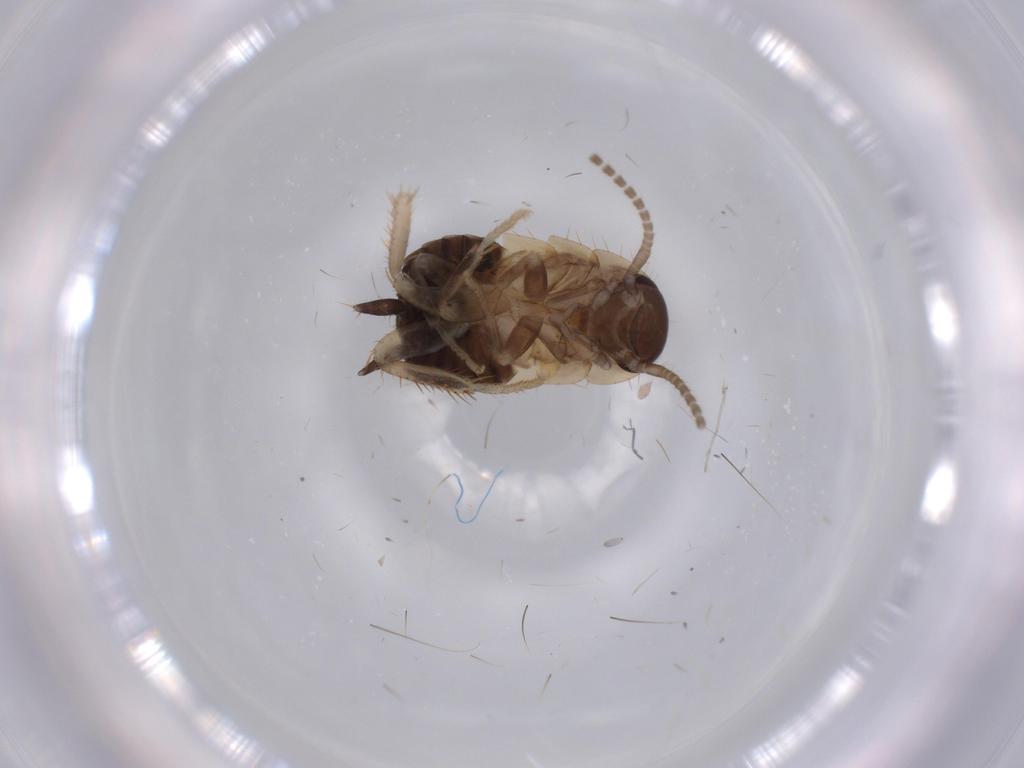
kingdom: Animalia
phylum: Arthropoda
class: Insecta
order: Blattodea
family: Ectobiidae
